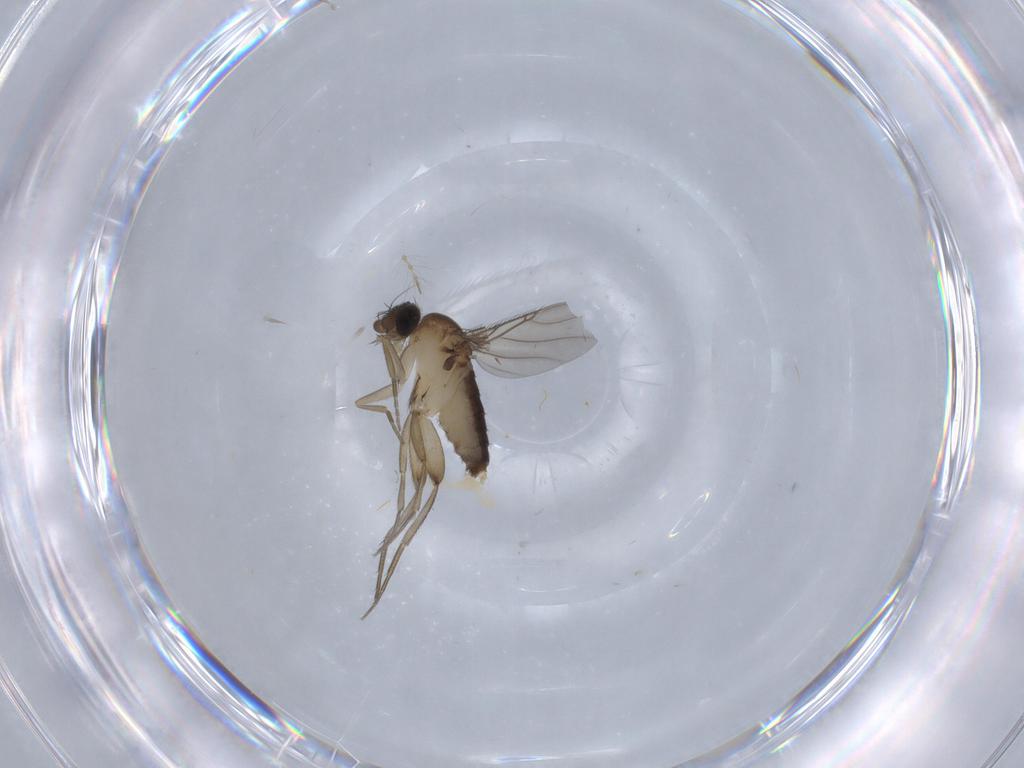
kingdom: Animalia
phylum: Arthropoda
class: Insecta
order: Diptera
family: Phoridae
